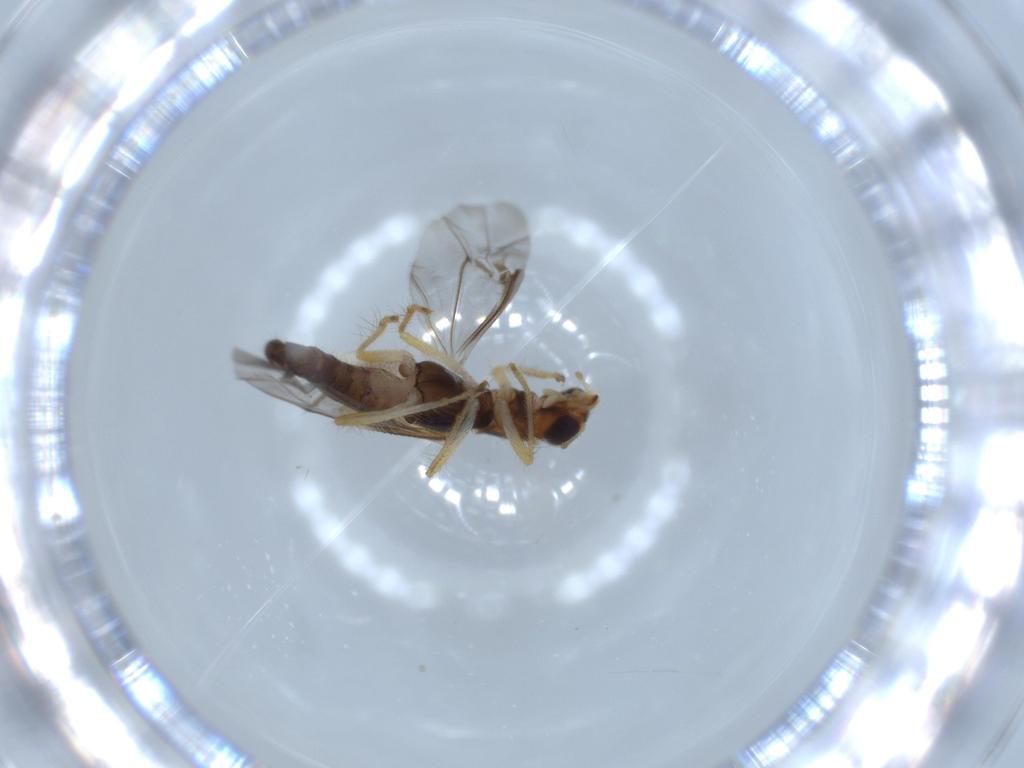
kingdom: Animalia
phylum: Arthropoda
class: Insecta
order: Coleoptera
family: Cleridae
